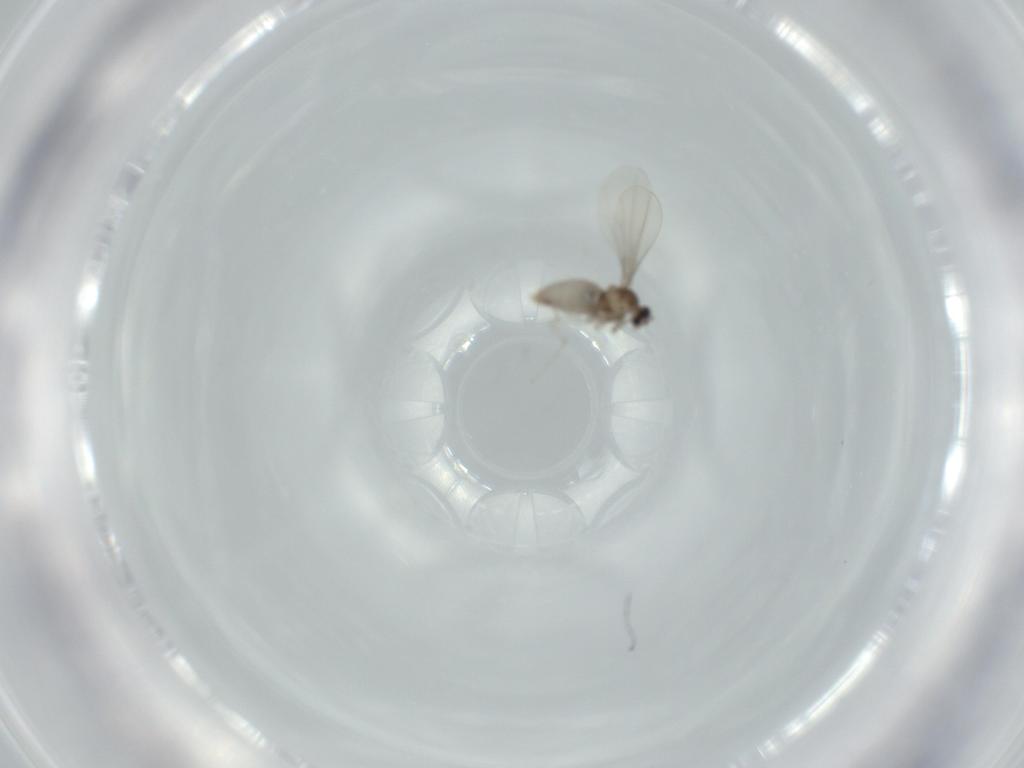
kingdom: Animalia
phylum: Arthropoda
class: Insecta
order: Diptera
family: Cecidomyiidae
